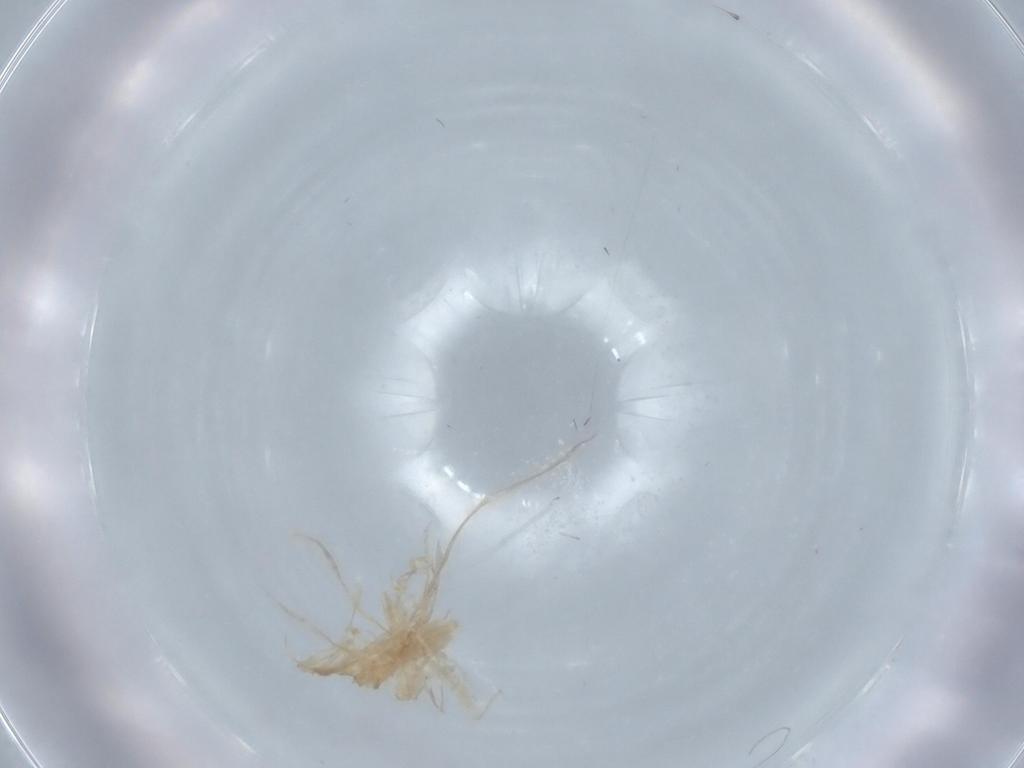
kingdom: Animalia
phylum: Arthropoda
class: Insecta
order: Diptera
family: Chironomidae
